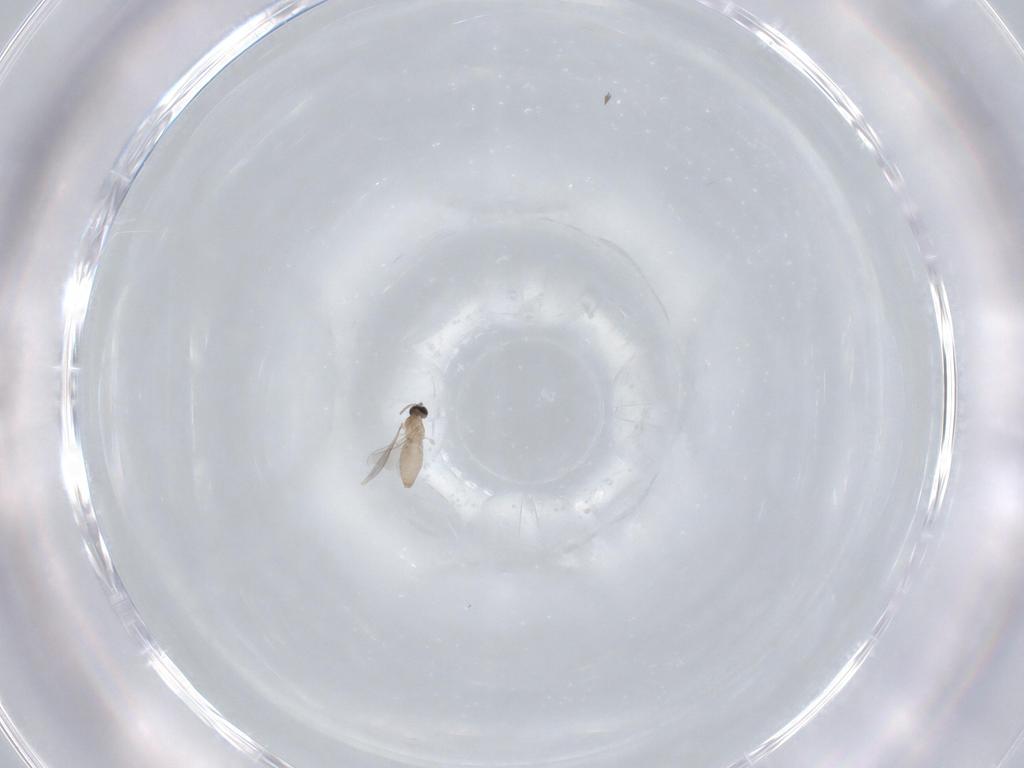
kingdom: Animalia
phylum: Arthropoda
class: Insecta
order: Diptera
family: Cecidomyiidae
